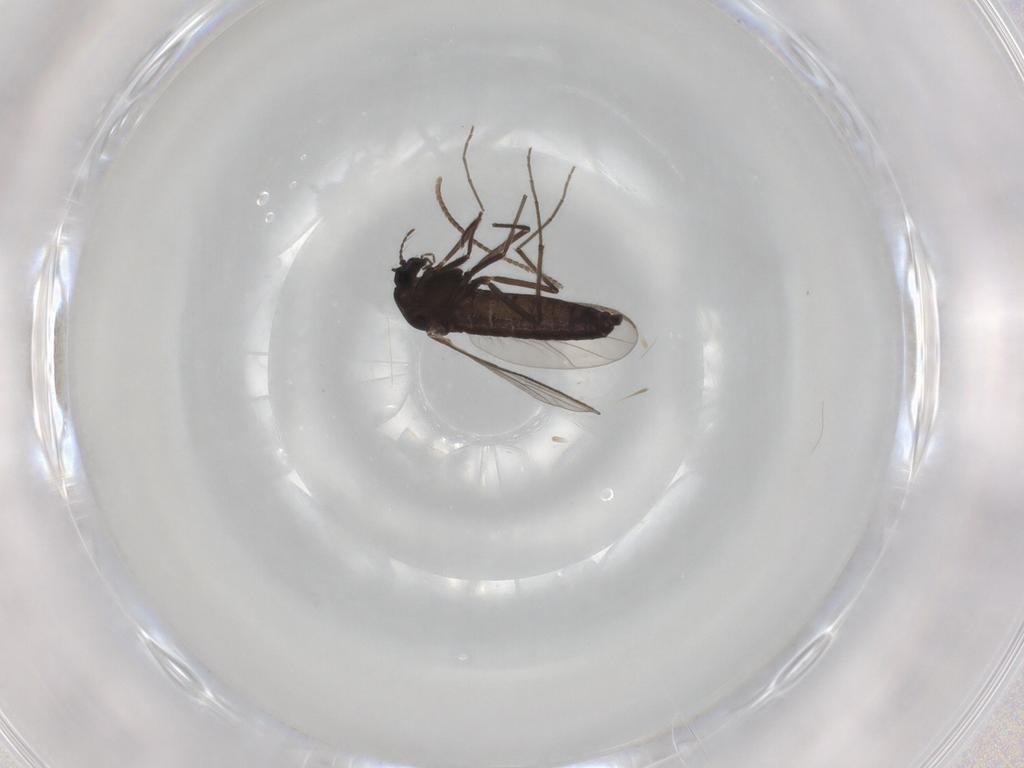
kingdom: Animalia
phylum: Arthropoda
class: Insecta
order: Diptera
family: Chironomidae
